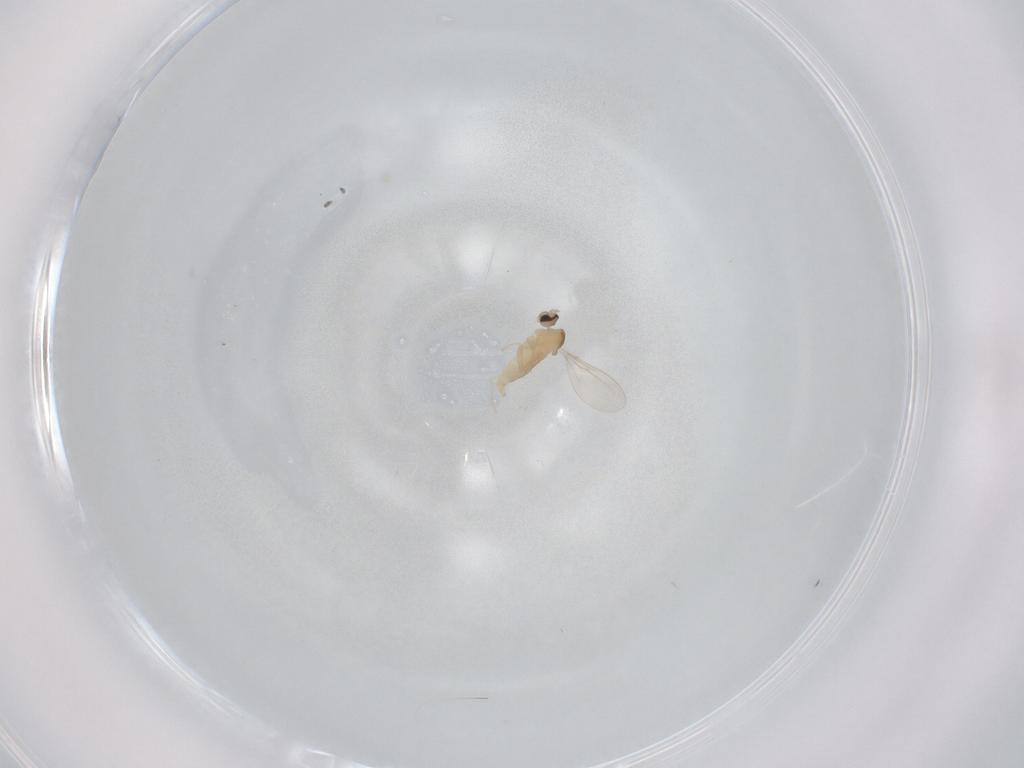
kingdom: Animalia
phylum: Arthropoda
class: Insecta
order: Diptera
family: Cecidomyiidae
